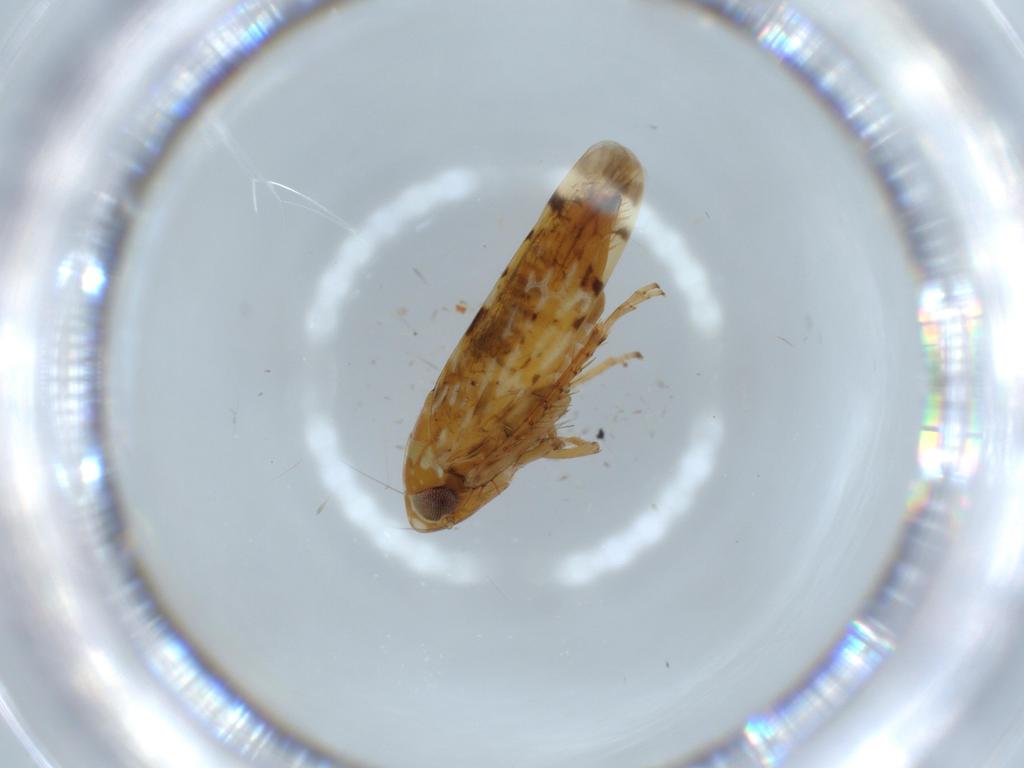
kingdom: Animalia
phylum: Arthropoda
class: Insecta
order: Hemiptera
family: Cicadellidae
